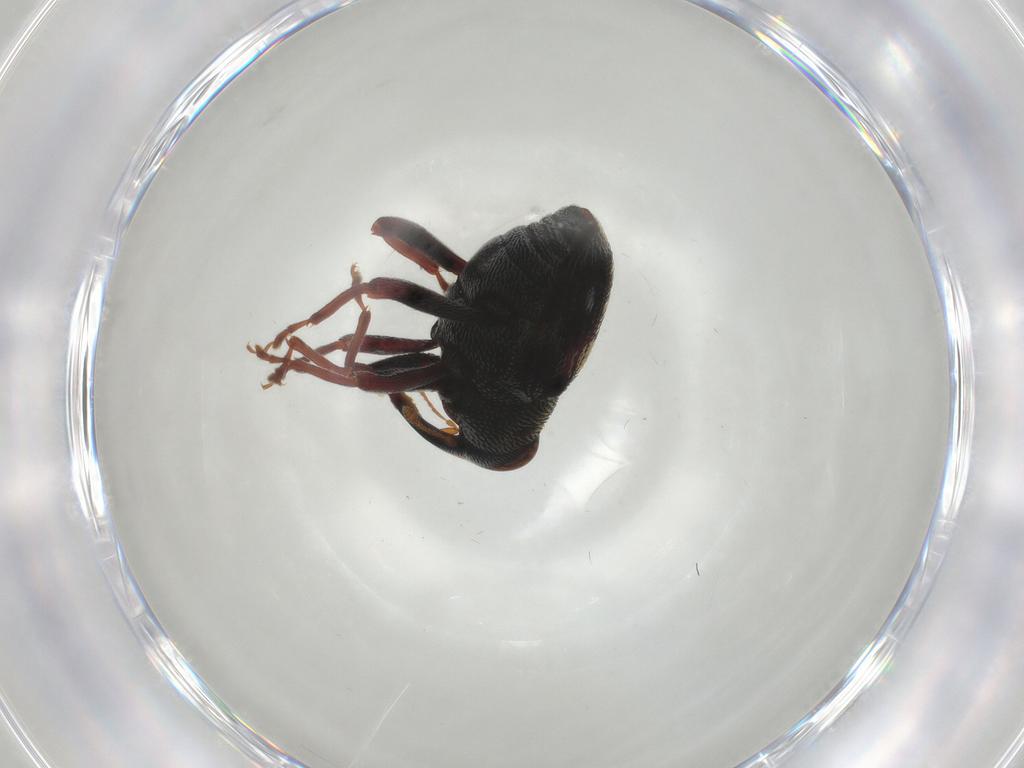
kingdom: Animalia
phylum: Arthropoda
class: Insecta
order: Coleoptera
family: Curculionidae
